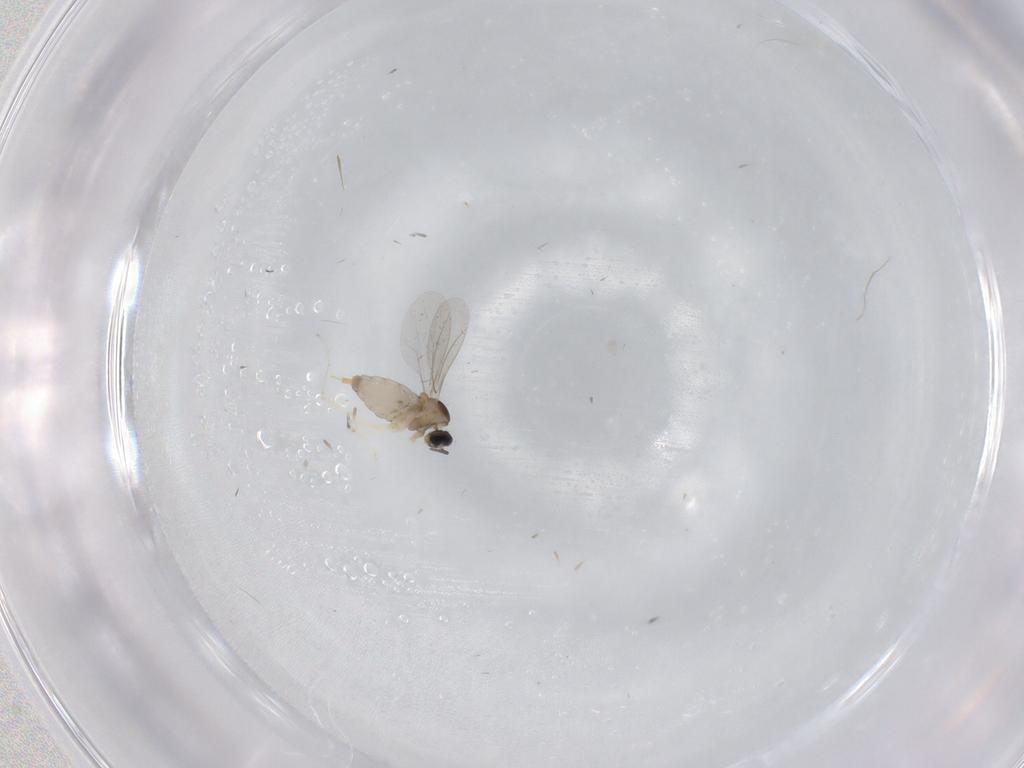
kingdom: Animalia
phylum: Arthropoda
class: Insecta
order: Diptera
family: Cecidomyiidae
